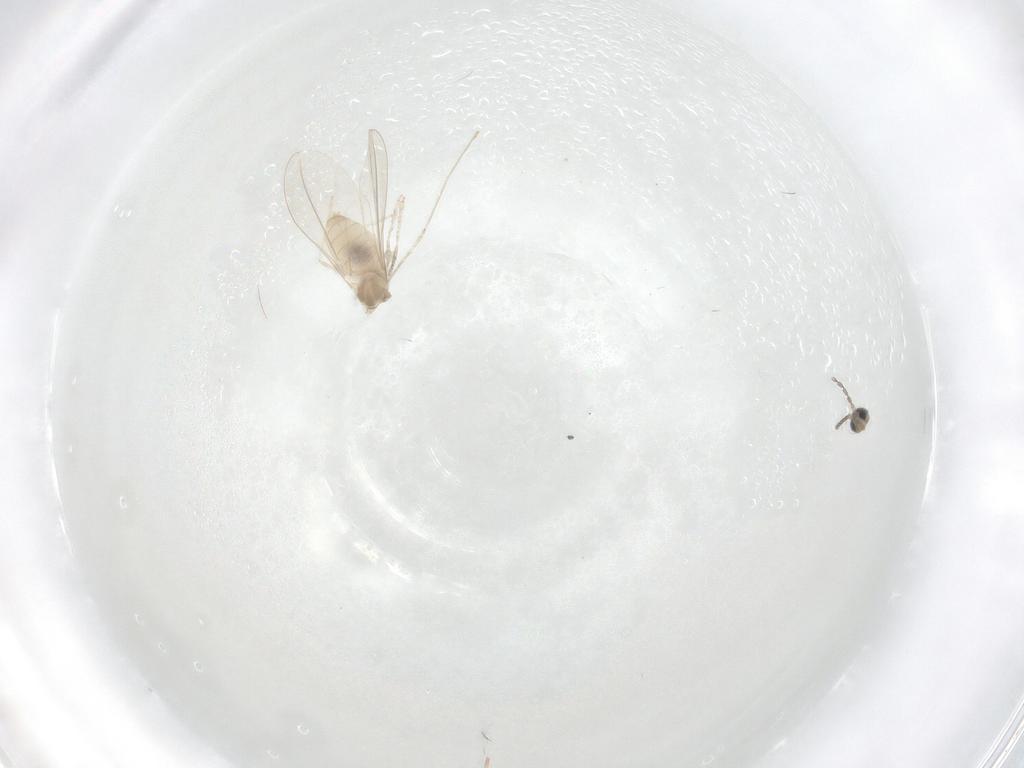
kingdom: Animalia
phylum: Arthropoda
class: Insecta
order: Diptera
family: Cecidomyiidae
